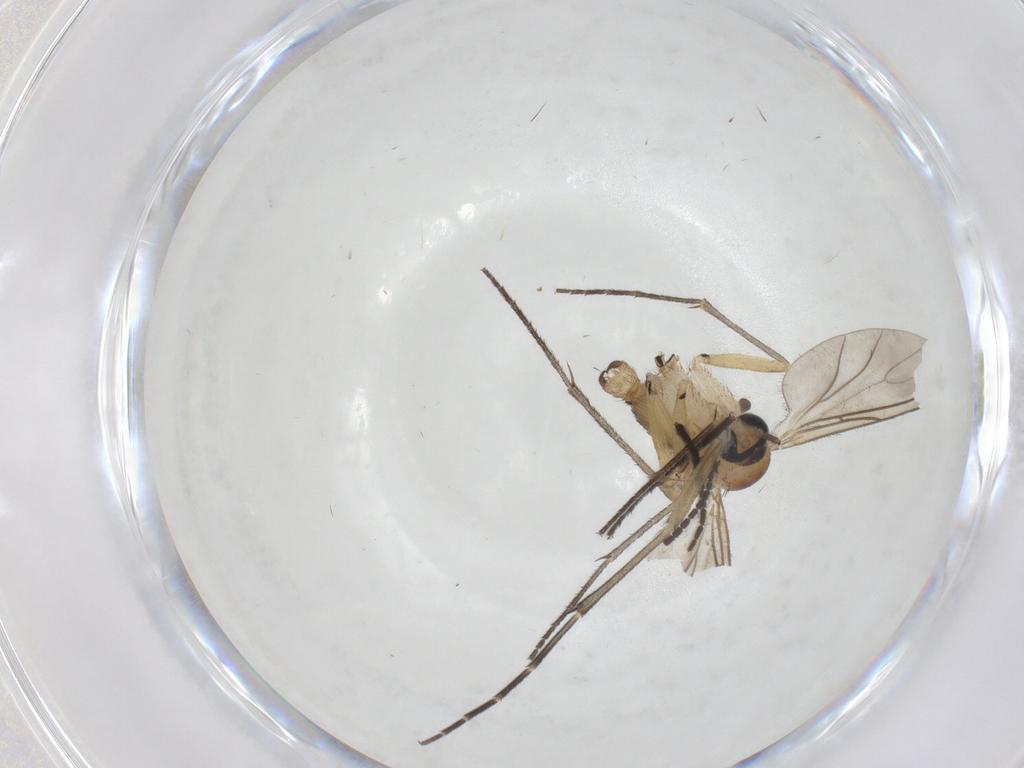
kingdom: Animalia
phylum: Arthropoda
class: Insecta
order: Diptera
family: Sciaridae
